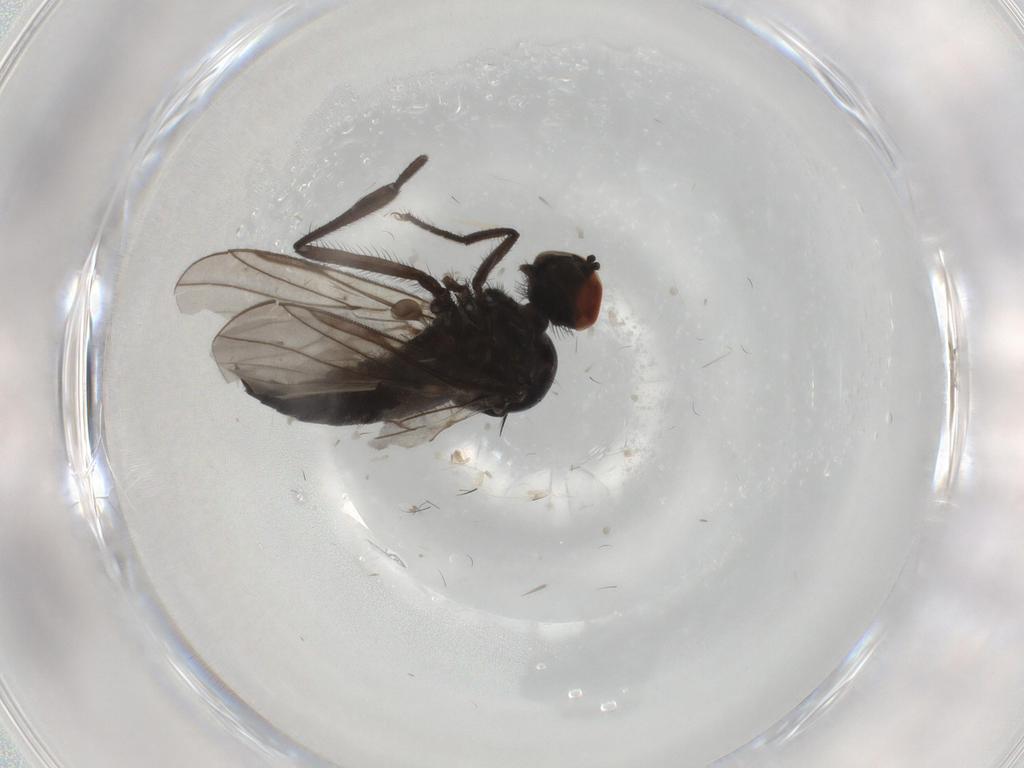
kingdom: Animalia
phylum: Arthropoda
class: Insecta
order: Diptera
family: Hybotidae
